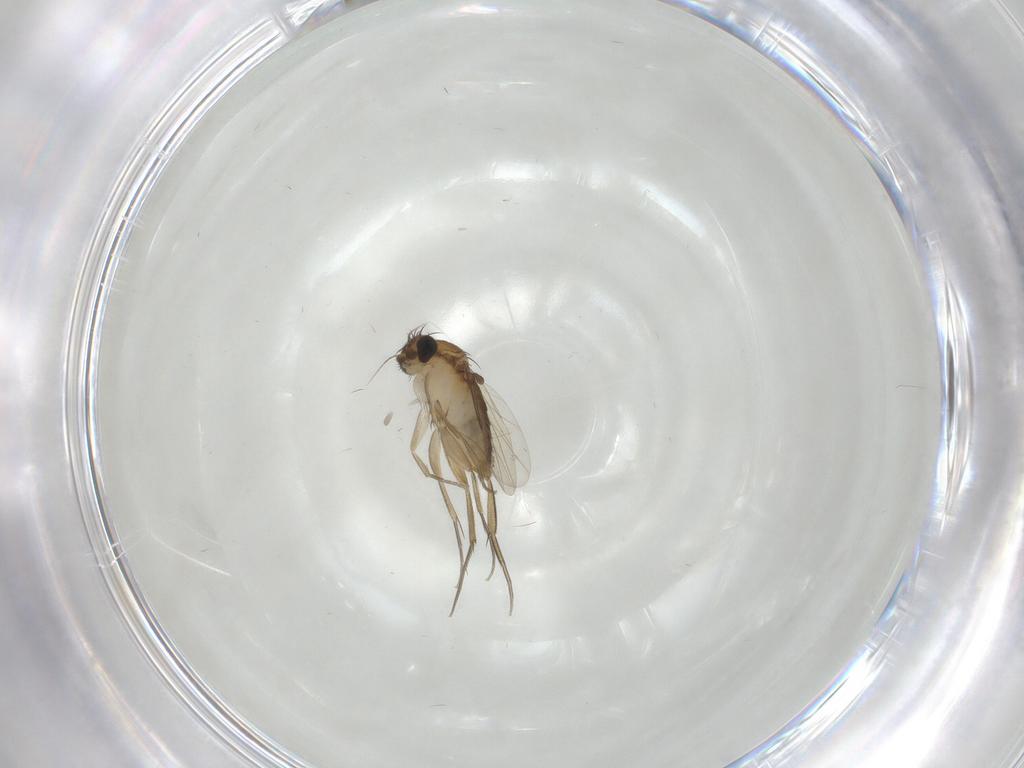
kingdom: Animalia
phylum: Arthropoda
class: Insecta
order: Diptera
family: Phoridae
